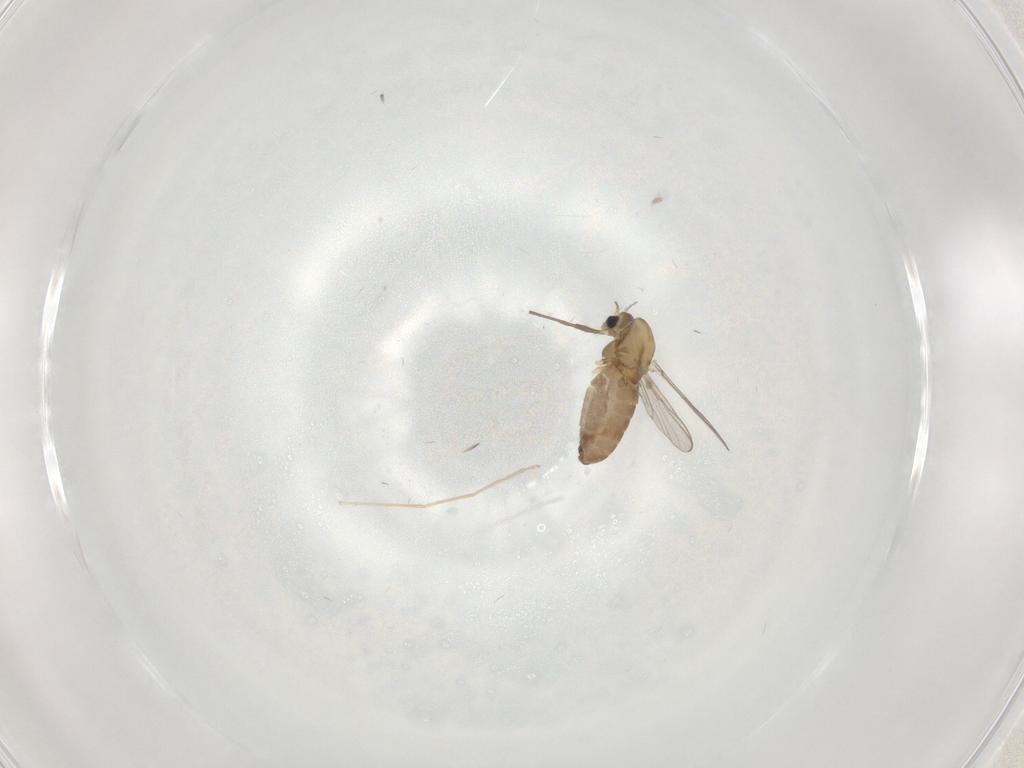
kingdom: Animalia
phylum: Arthropoda
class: Insecta
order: Diptera
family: Chironomidae
